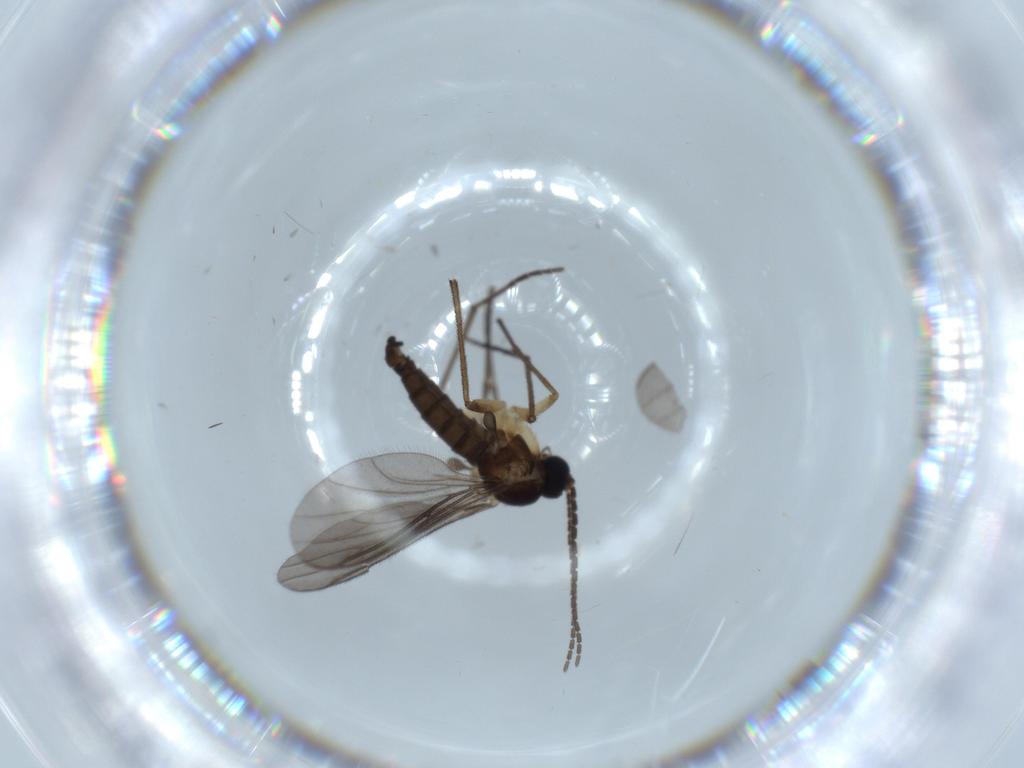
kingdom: Animalia
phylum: Arthropoda
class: Insecta
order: Diptera
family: Sciaridae
